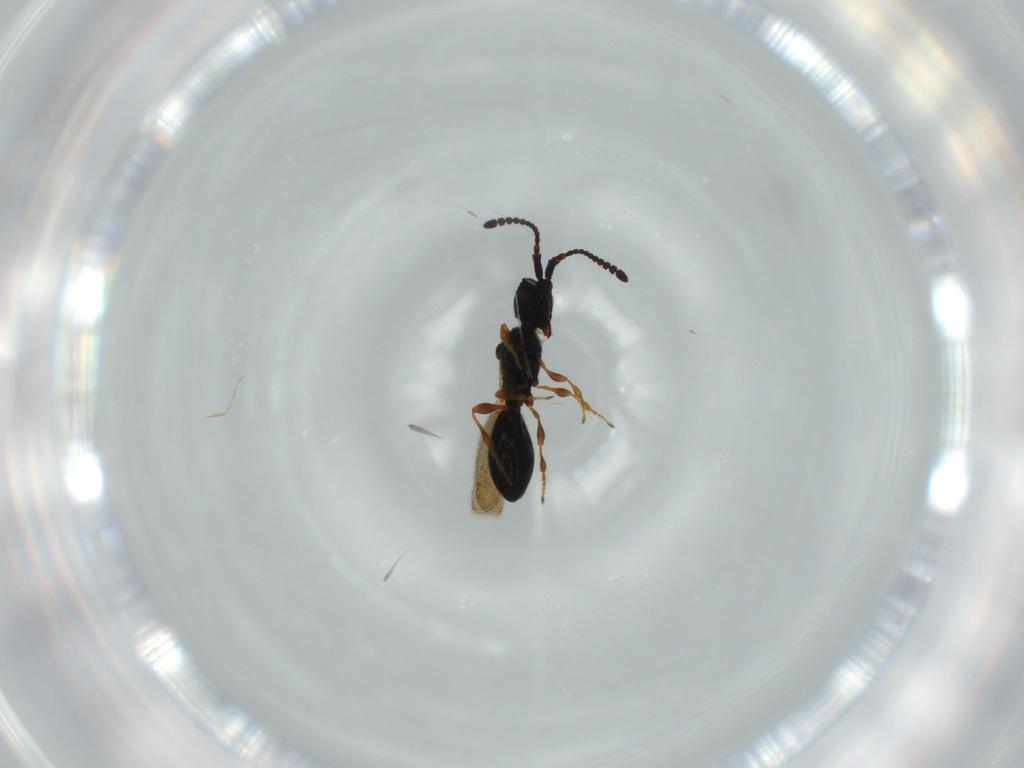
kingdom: Animalia
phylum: Arthropoda
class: Insecta
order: Hymenoptera
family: Diapriidae
